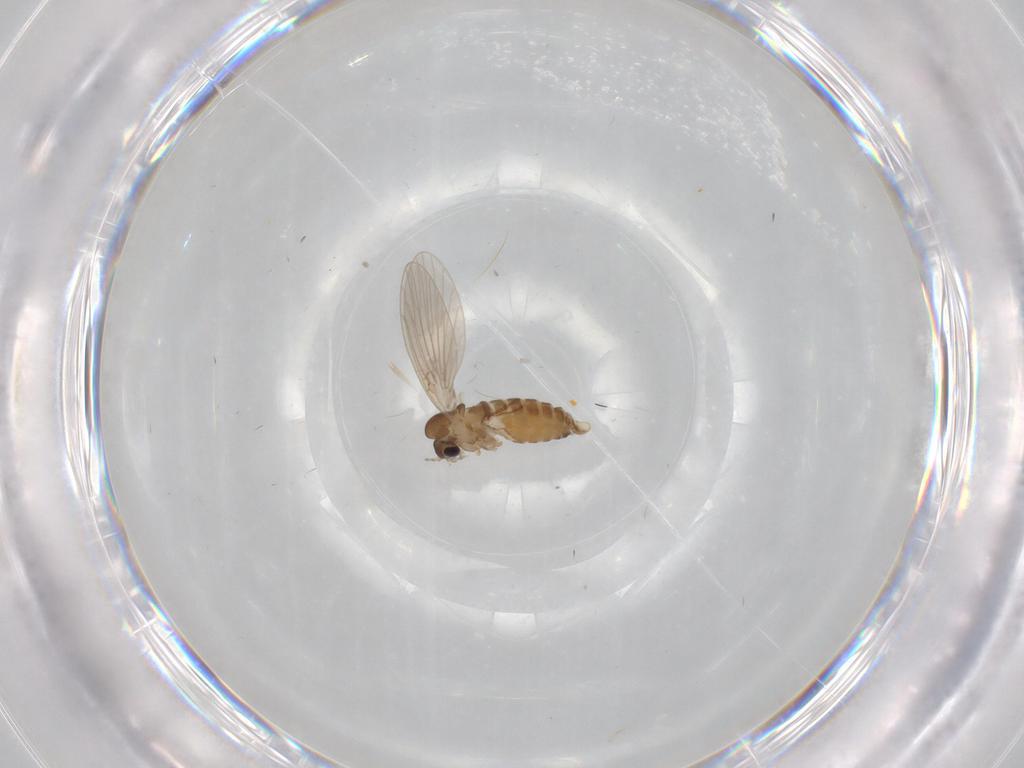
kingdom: Animalia
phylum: Arthropoda
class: Insecta
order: Diptera
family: Psychodidae
